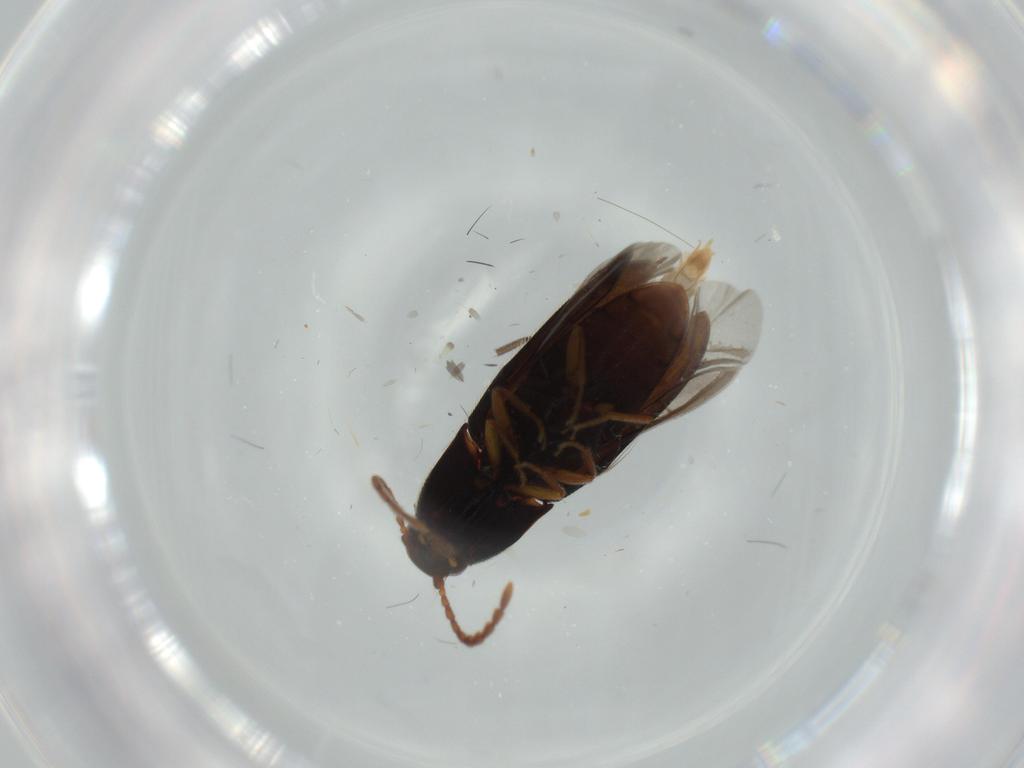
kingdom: Animalia
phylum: Arthropoda
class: Insecta
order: Coleoptera
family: Elateridae
